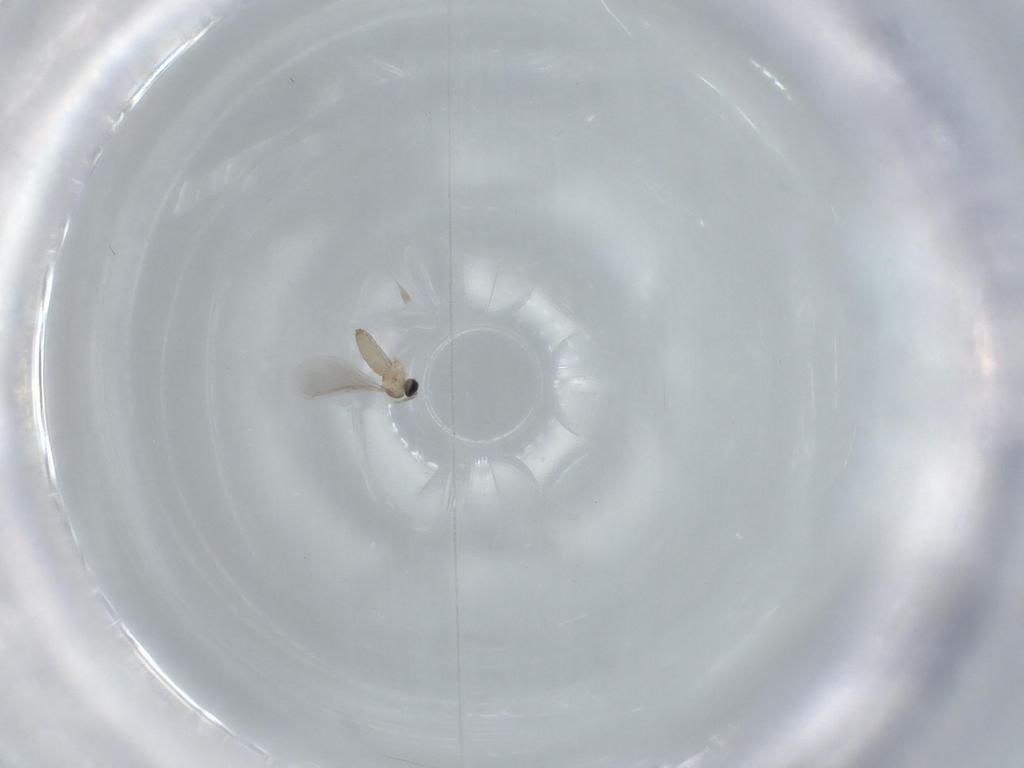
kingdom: Animalia
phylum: Arthropoda
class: Insecta
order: Diptera
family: Cecidomyiidae
